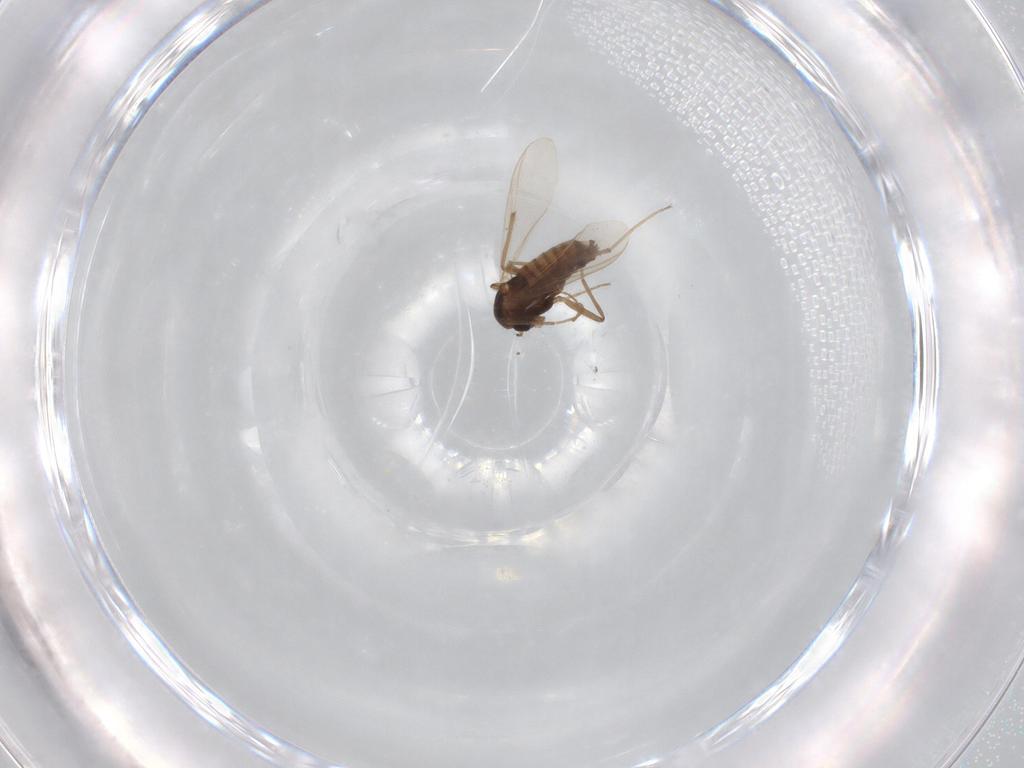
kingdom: Animalia
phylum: Arthropoda
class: Insecta
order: Diptera
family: Chironomidae
